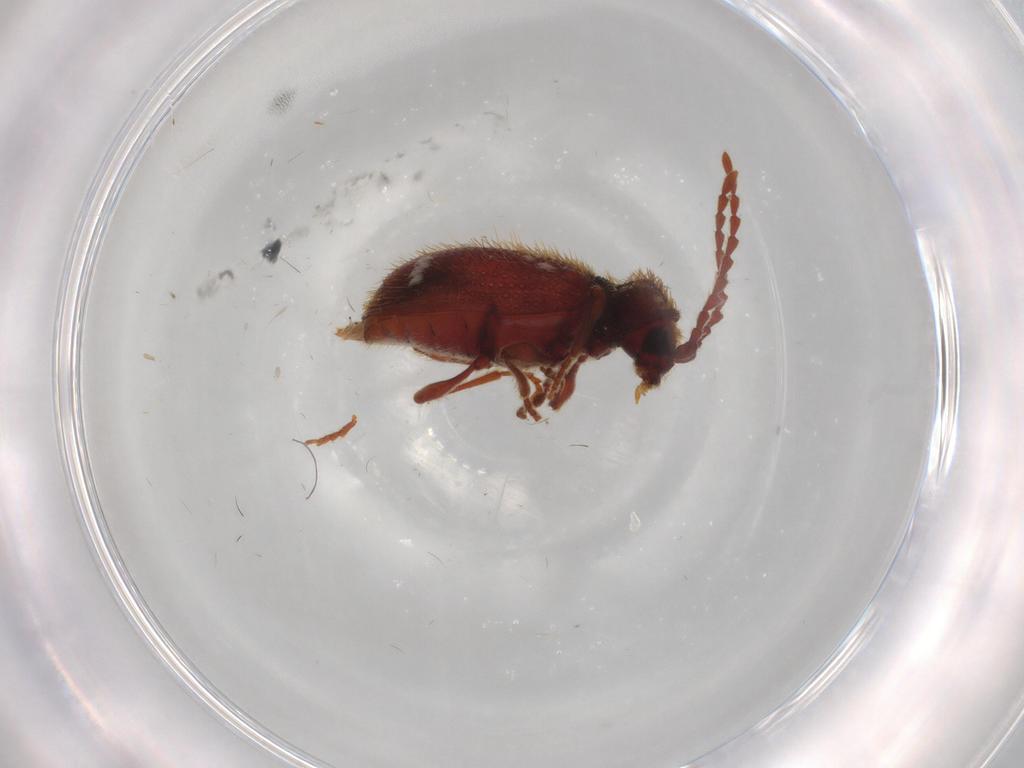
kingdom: Animalia
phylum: Arthropoda
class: Insecta
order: Coleoptera
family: Ptinidae
